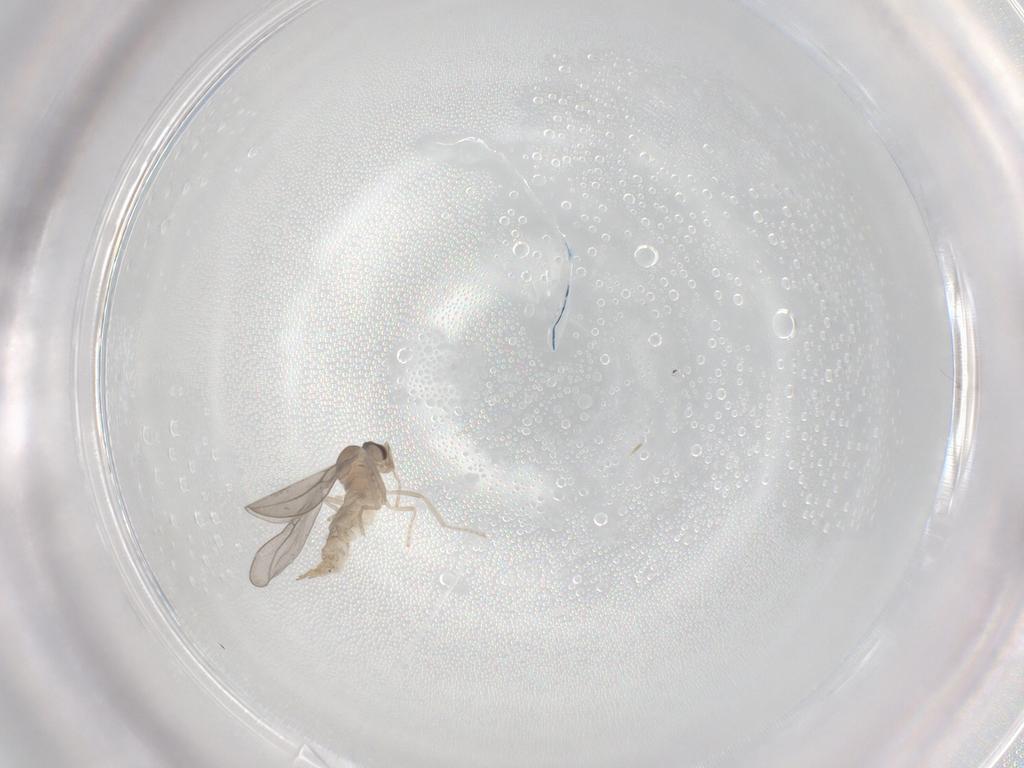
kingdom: Animalia
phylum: Arthropoda
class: Insecta
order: Diptera
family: Cecidomyiidae
